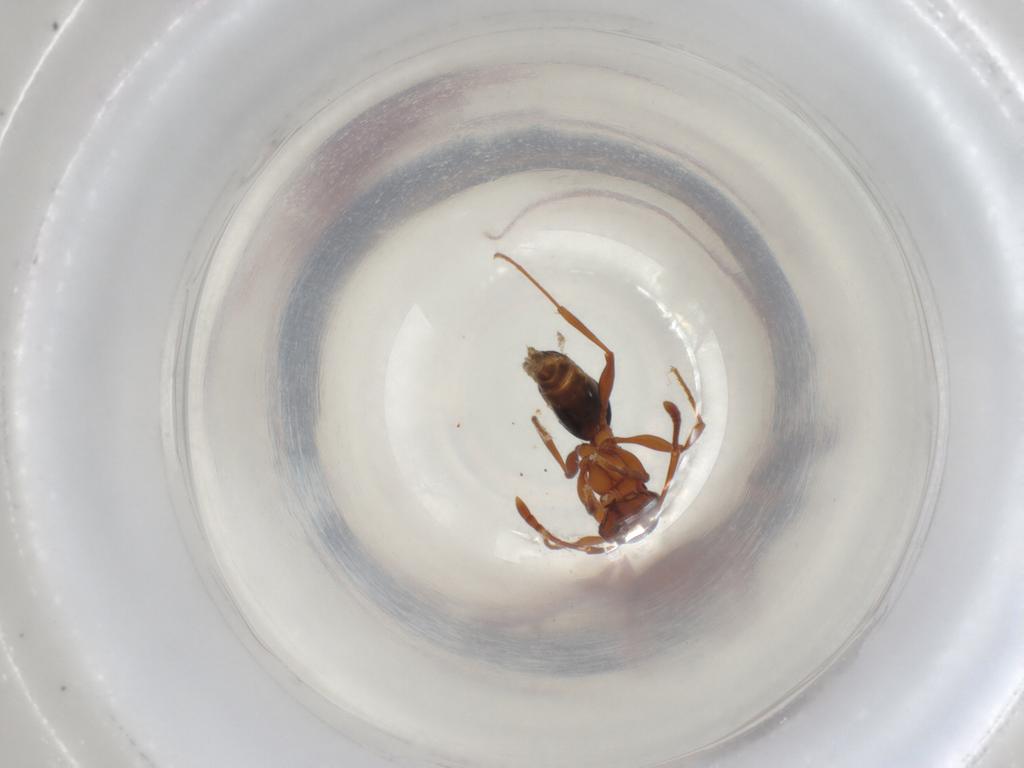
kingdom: Animalia
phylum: Arthropoda
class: Insecta
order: Hymenoptera
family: Formicidae
